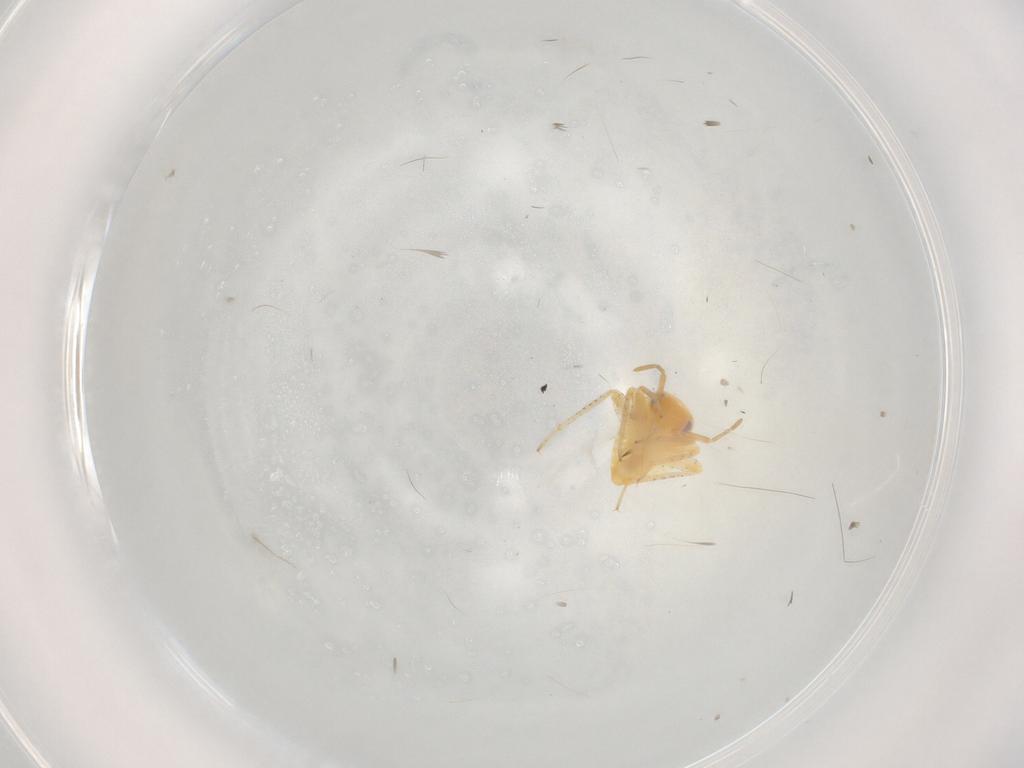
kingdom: Animalia
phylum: Arthropoda
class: Insecta
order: Hemiptera
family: Miridae
